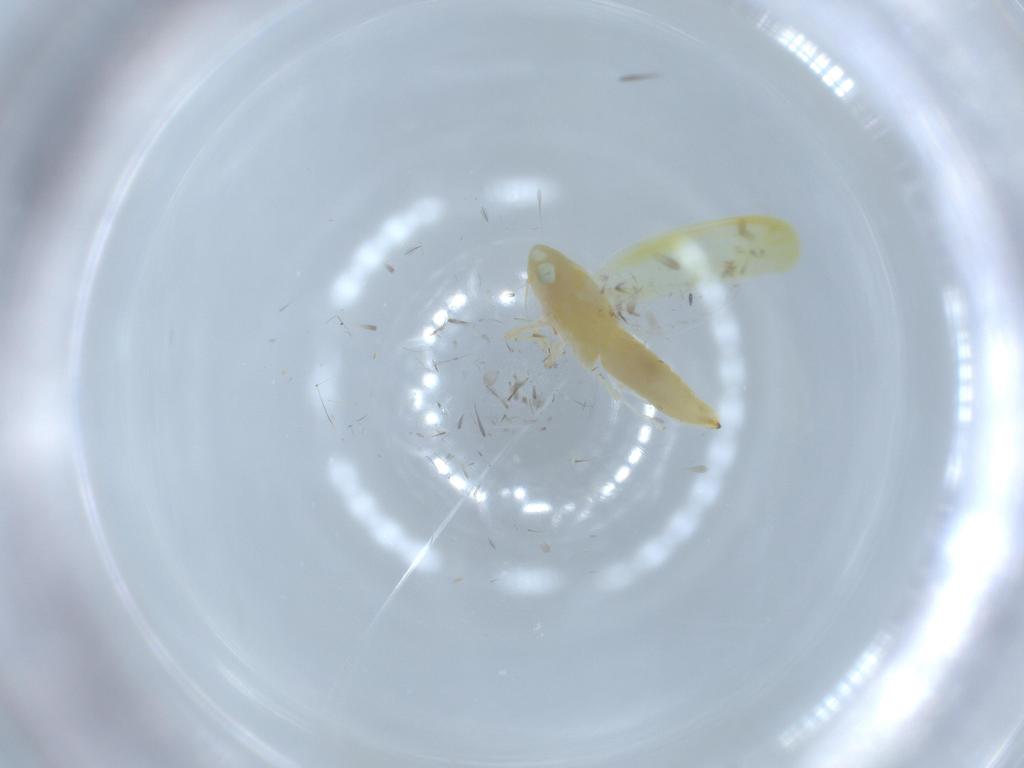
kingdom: Animalia
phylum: Arthropoda
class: Insecta
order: Hemiptera
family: Cicadellidae
